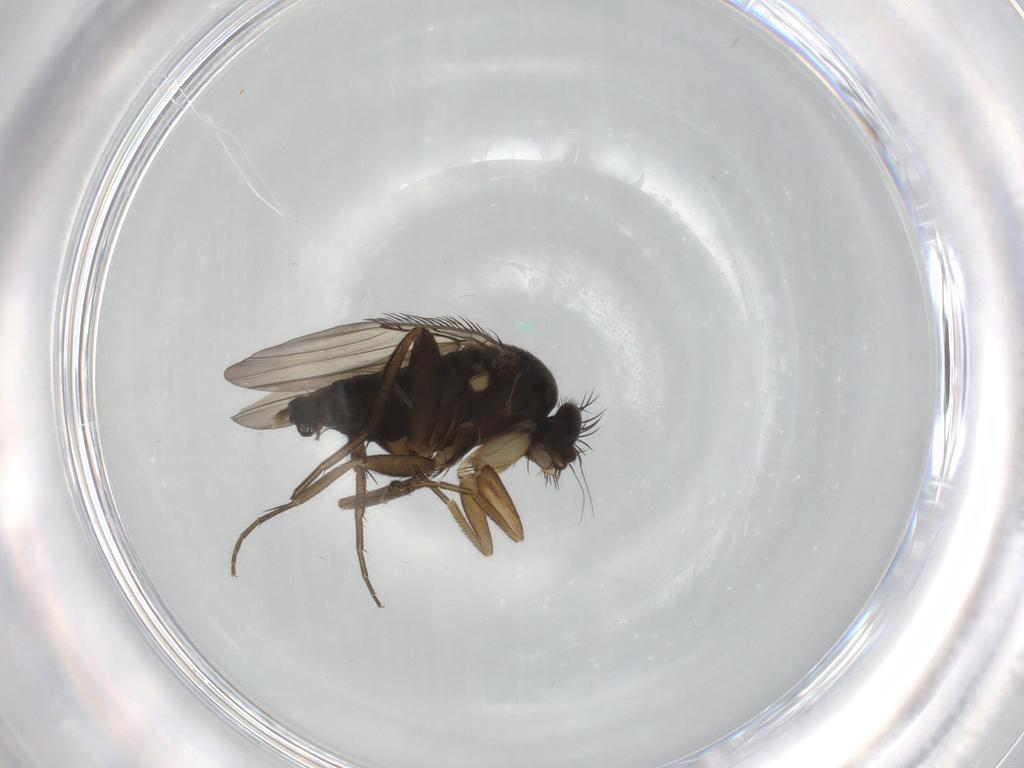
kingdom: Animalia
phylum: Arthropoda
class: Insecta
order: Diptera
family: Phoridae
